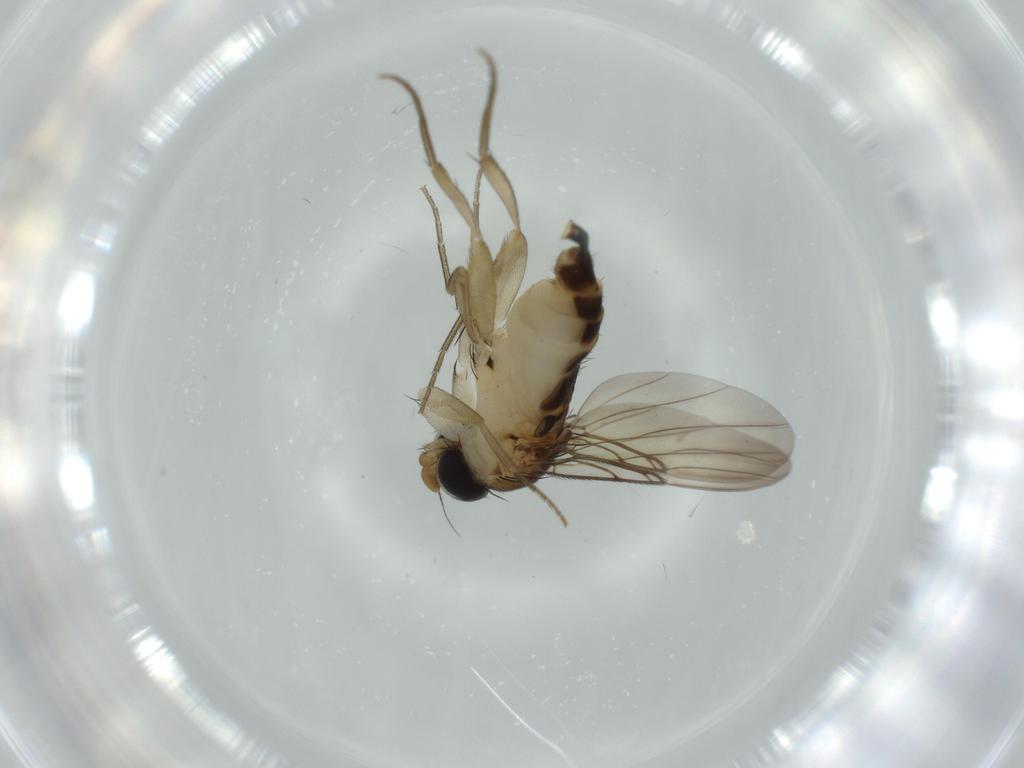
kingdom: Animalia
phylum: Arthropoda
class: Insecta
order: Diptera
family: Phoridae
